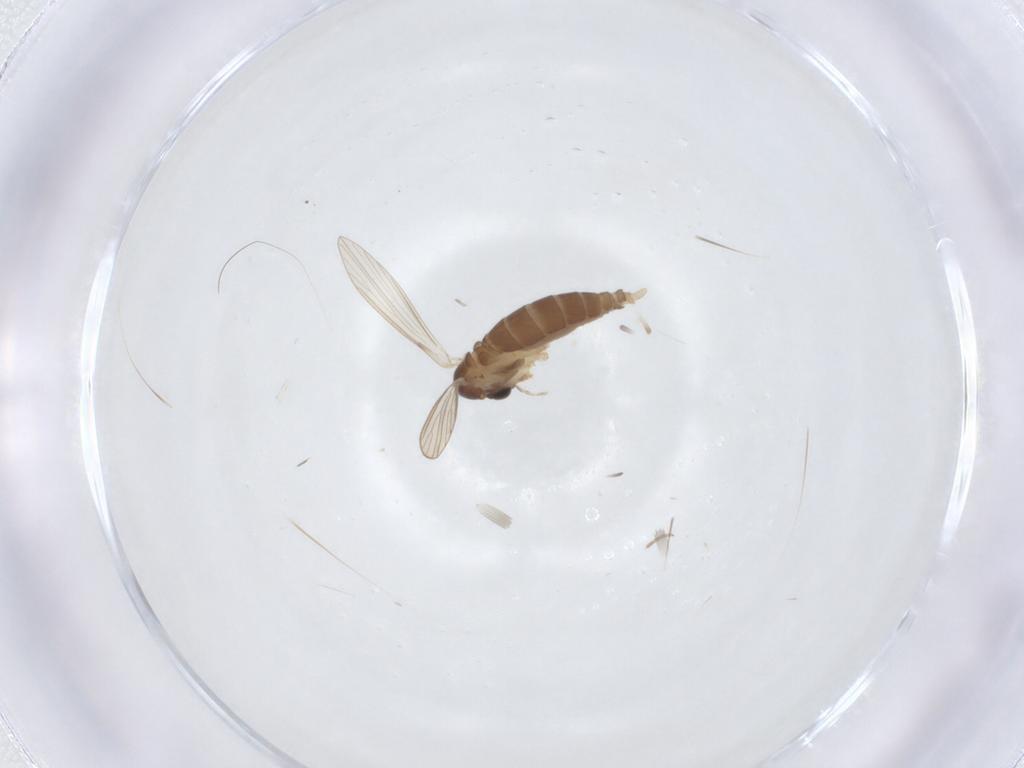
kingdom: Animalia
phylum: Arthropoda
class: Insecta
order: Diptera
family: Psychodidae
